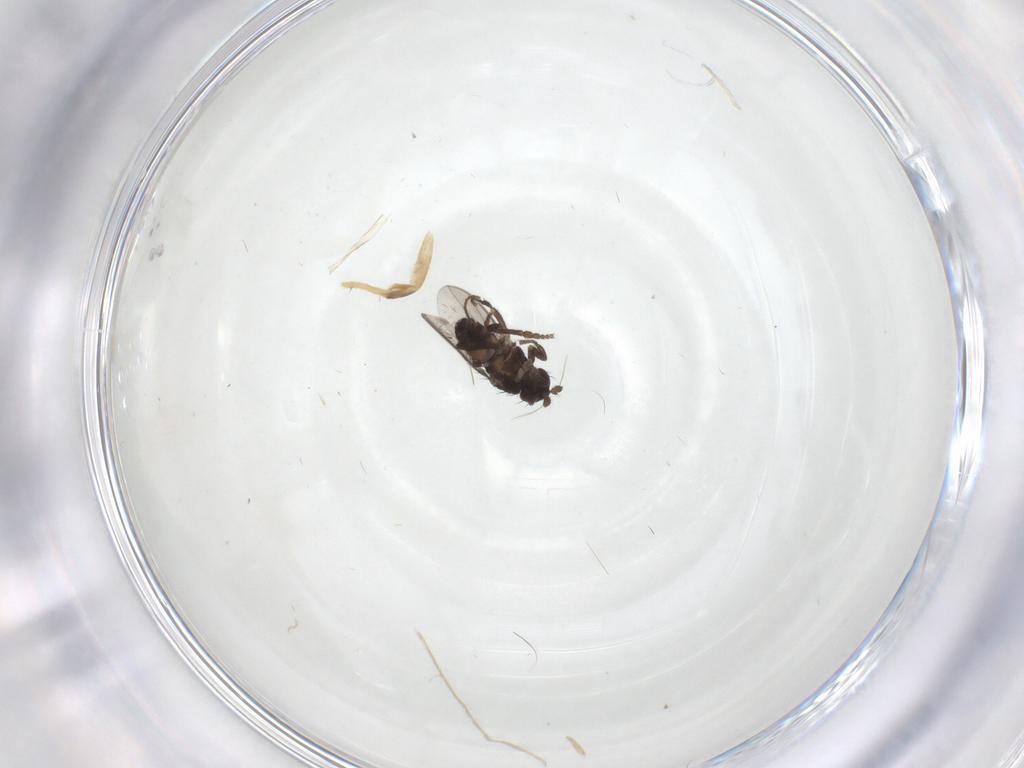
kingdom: Animalia
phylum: Arthropoda
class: Insecta
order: Diptera
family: Sphaeroceridae
